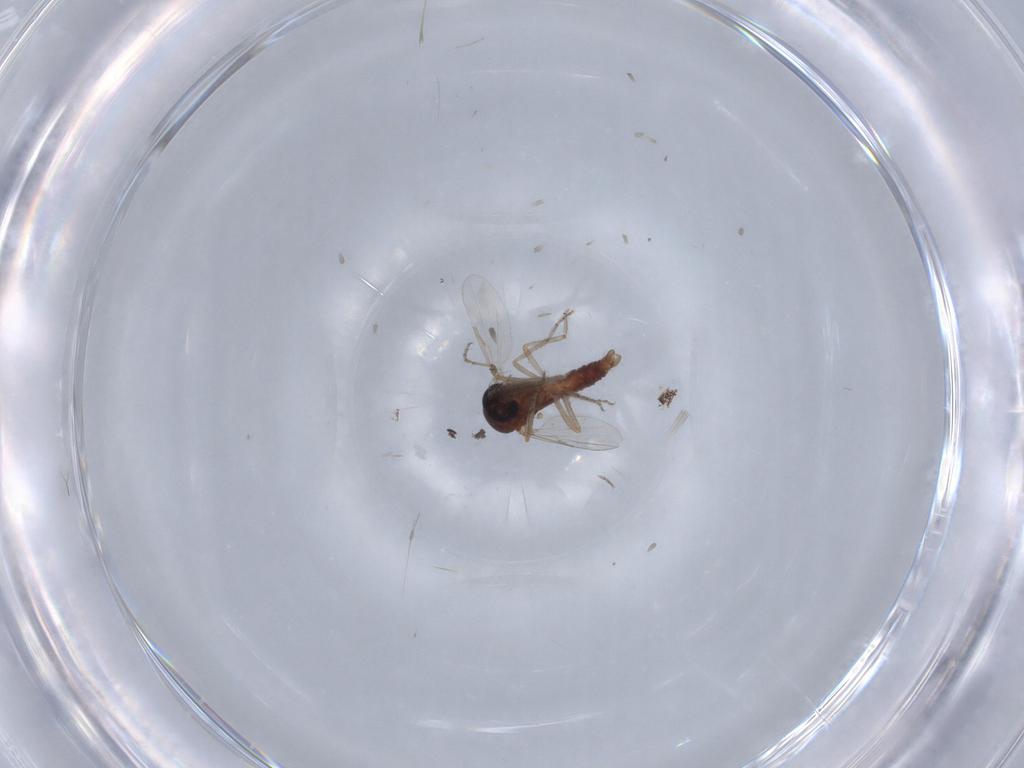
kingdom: Animalia
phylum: Arthropoda
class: Insecta
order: Diptera
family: Ceratopogonidae
